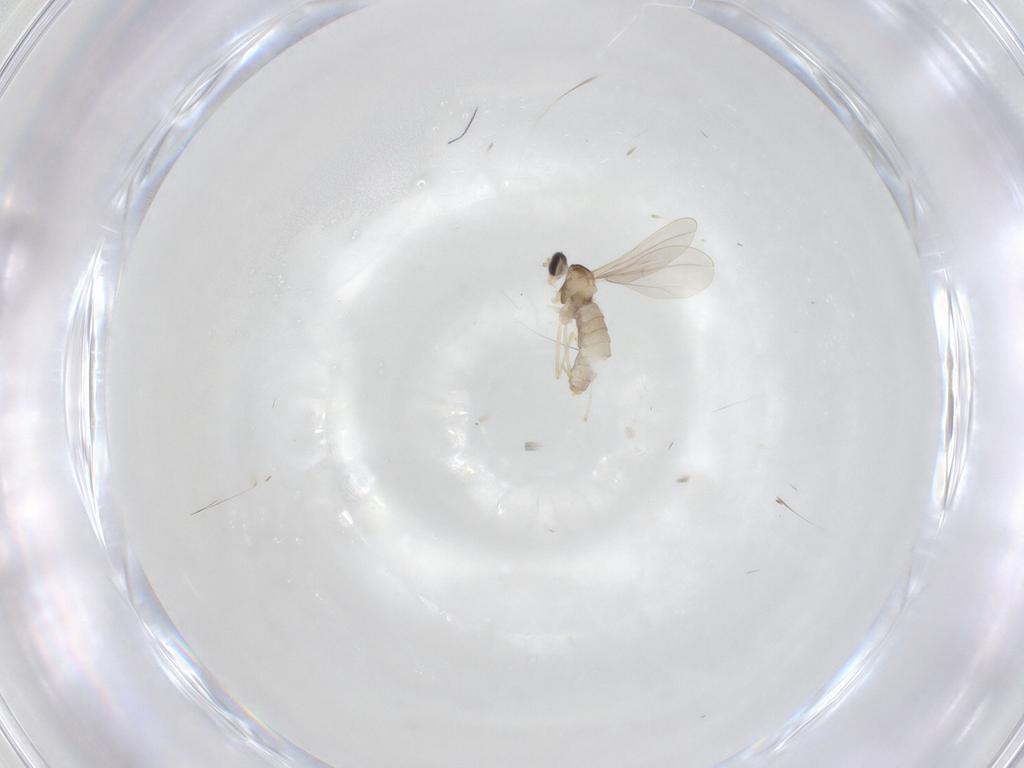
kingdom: Animalia
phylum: Arthropoda
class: Insecta
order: Diptera
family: Cecidomyiidae
